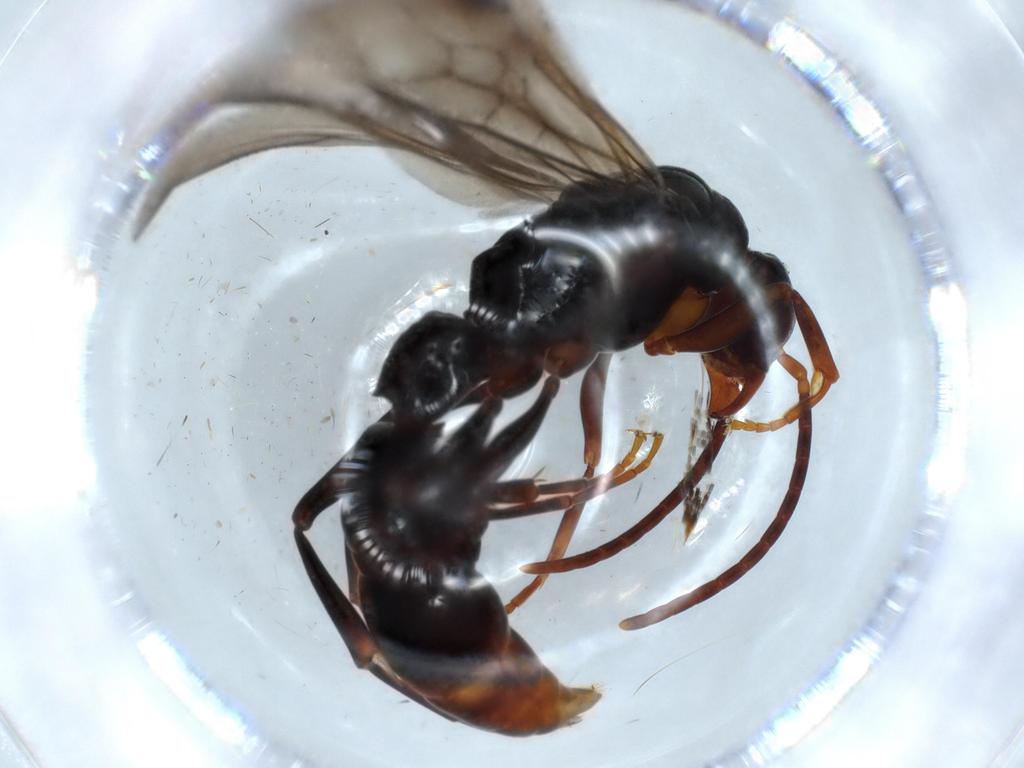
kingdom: Animalia
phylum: Arthropoda
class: Insecta
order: Hymenoptera
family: Formicidae
